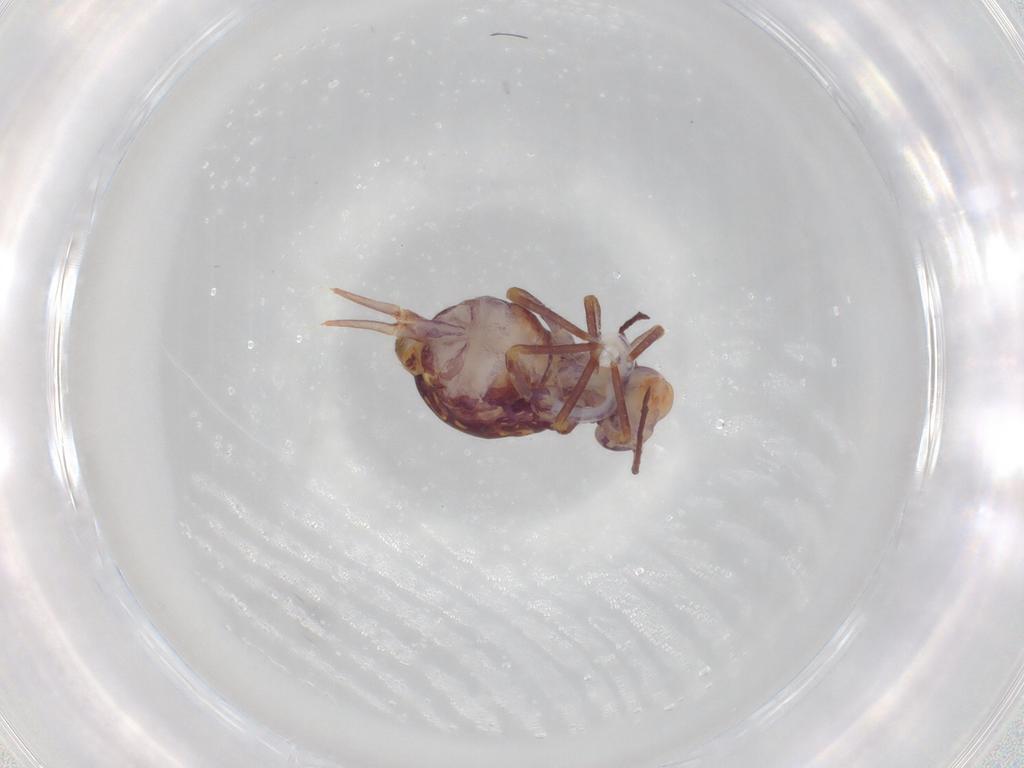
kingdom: Animalia
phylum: Arthropoda
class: Collembola
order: Symphypleona
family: Dicyrtomidae
